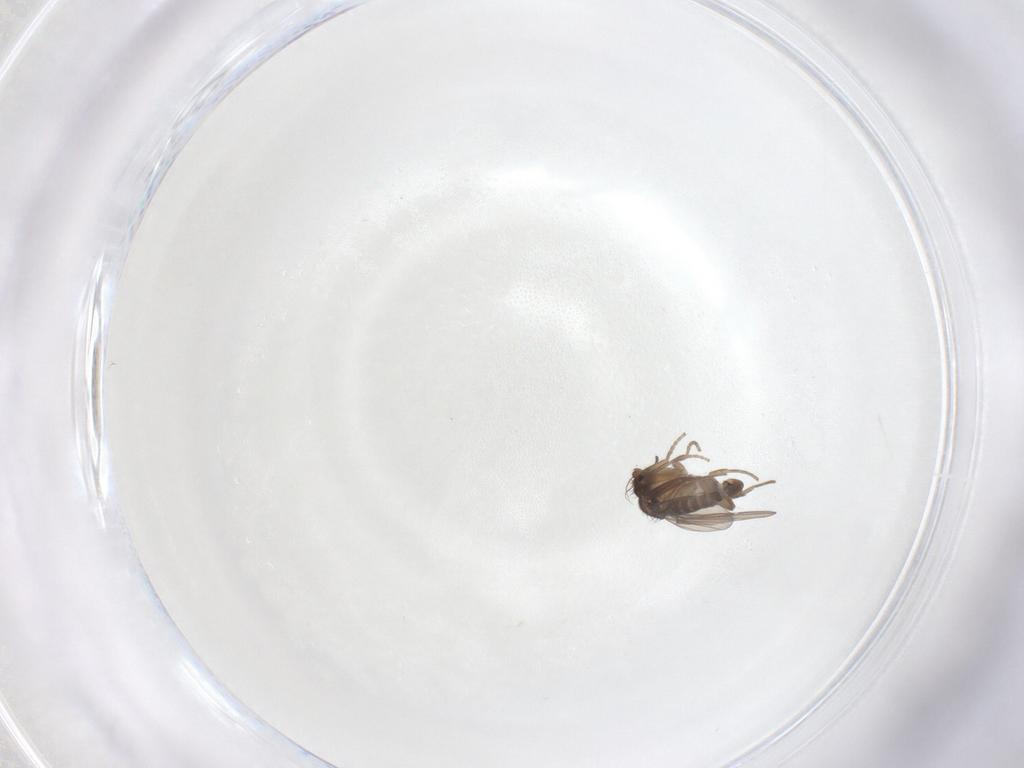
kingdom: Animalia
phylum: Arthropoda
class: Insecta
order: Diptera
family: Phoridae
